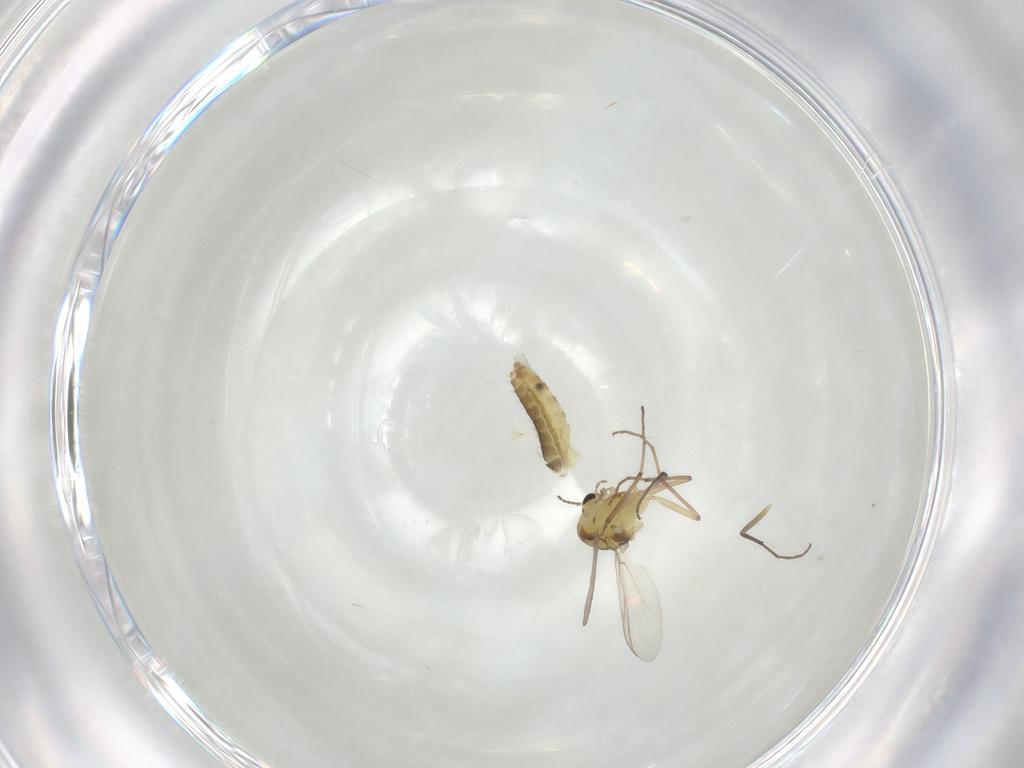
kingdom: Animalia
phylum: Arthropoda
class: Insecta
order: Diptera
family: Chironomidae
